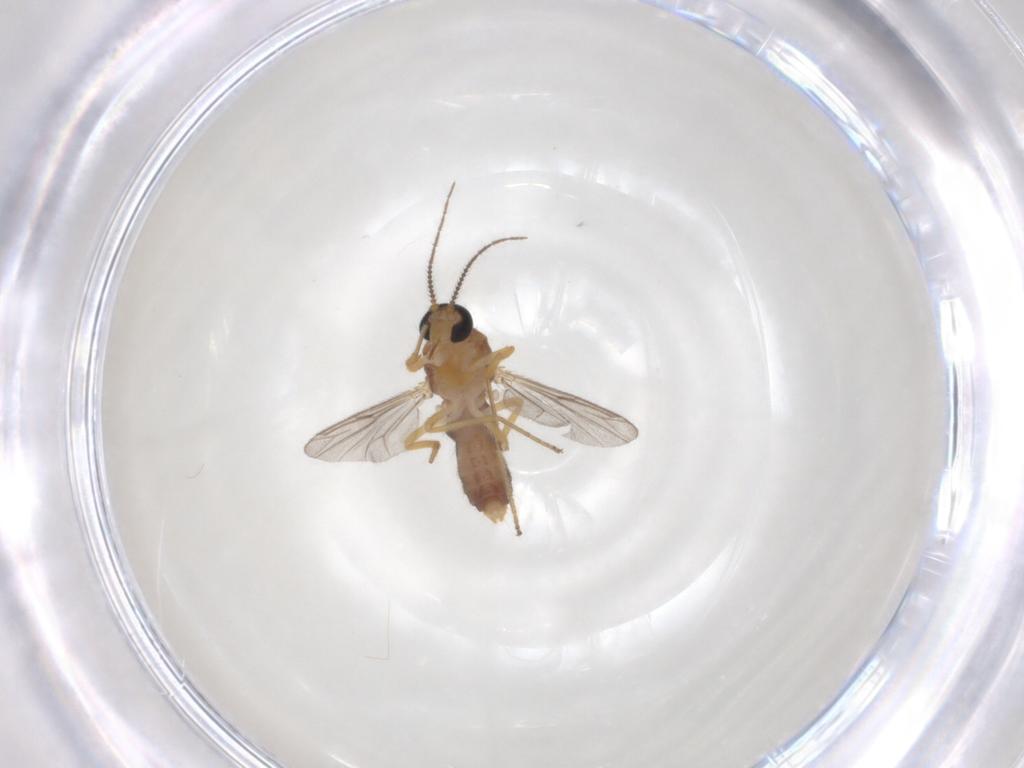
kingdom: Animalia
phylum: Arthropoda
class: Insecta
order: Diptera
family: Ceratopogonidae
